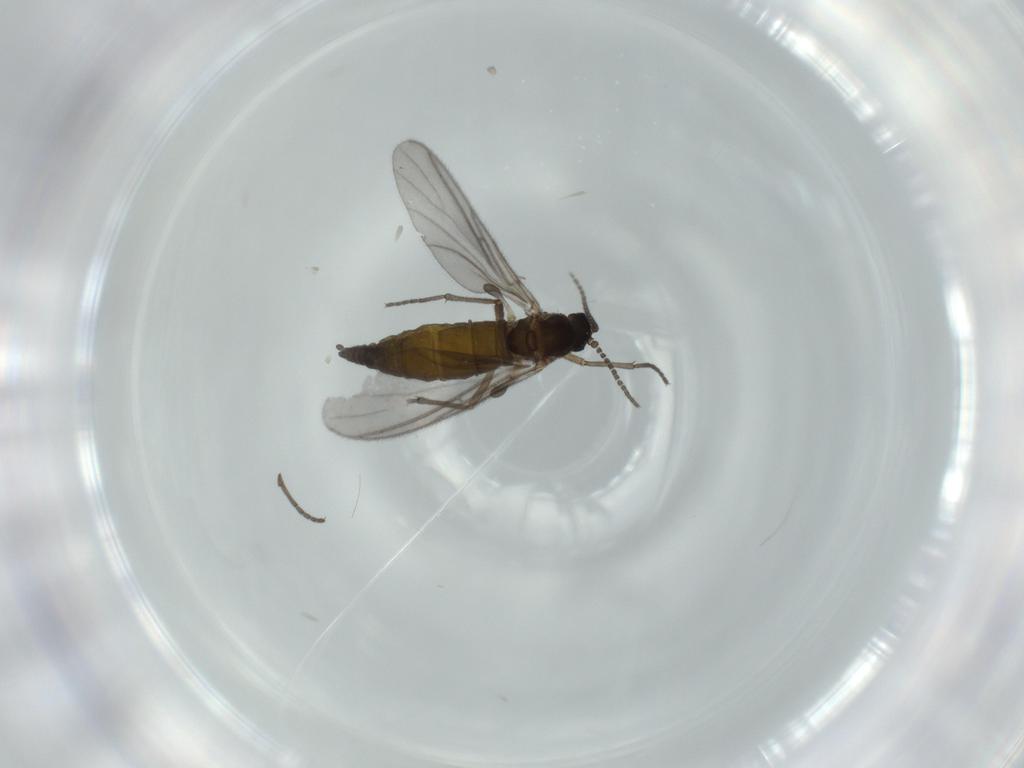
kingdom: Animalia
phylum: Arthropoda
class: Insecta
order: Diptera
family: Sciaridae
